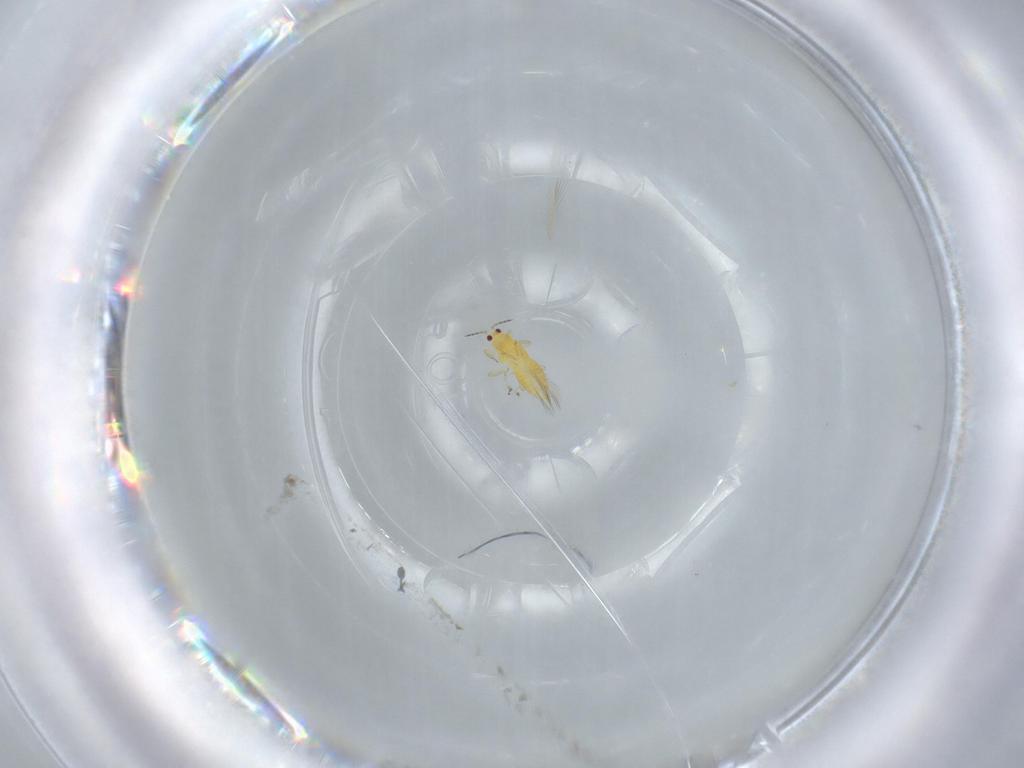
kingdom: Animalia
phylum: Arthropoda
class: Insecta
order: Thysanoptera
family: Thripidae
